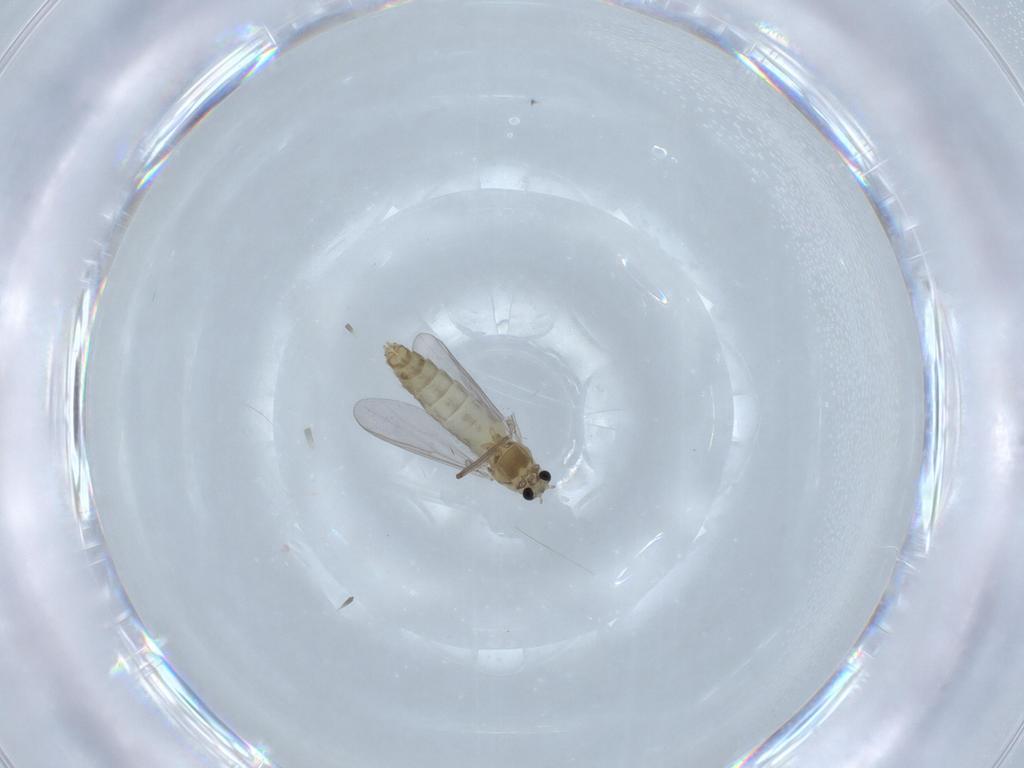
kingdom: Animalia
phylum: Arthropoda
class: Insecta
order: Diptera
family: Chironomidae
